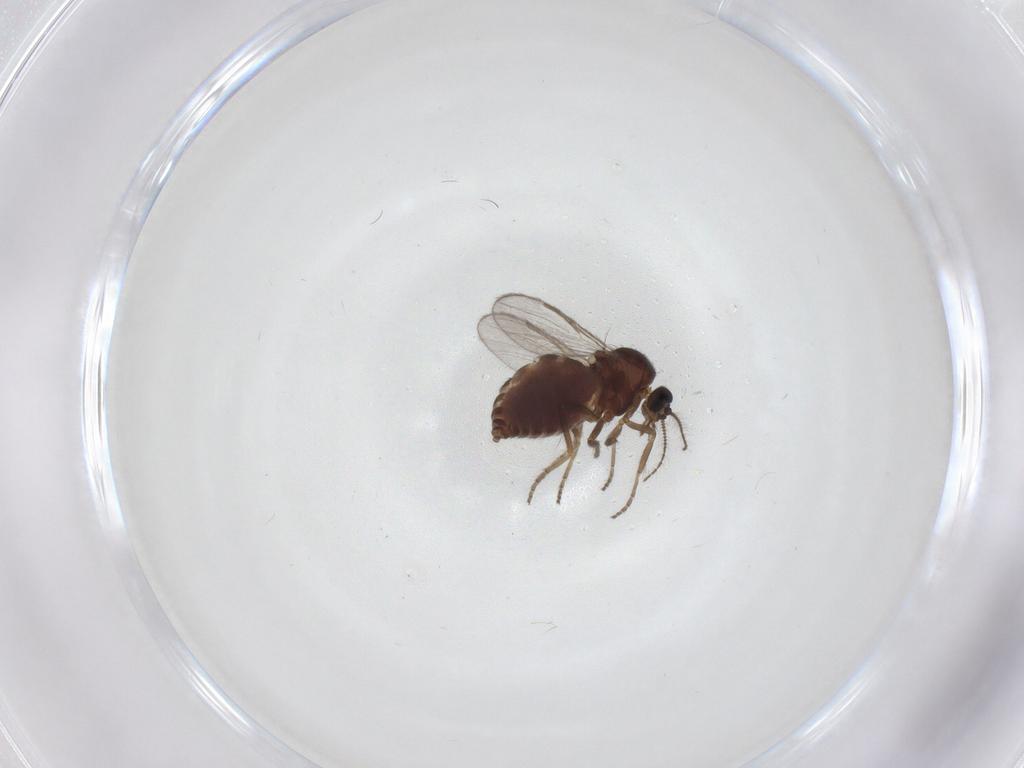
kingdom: Animalia
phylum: Arthropoda
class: Insecta
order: Diptera
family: Ceratopogonidae
